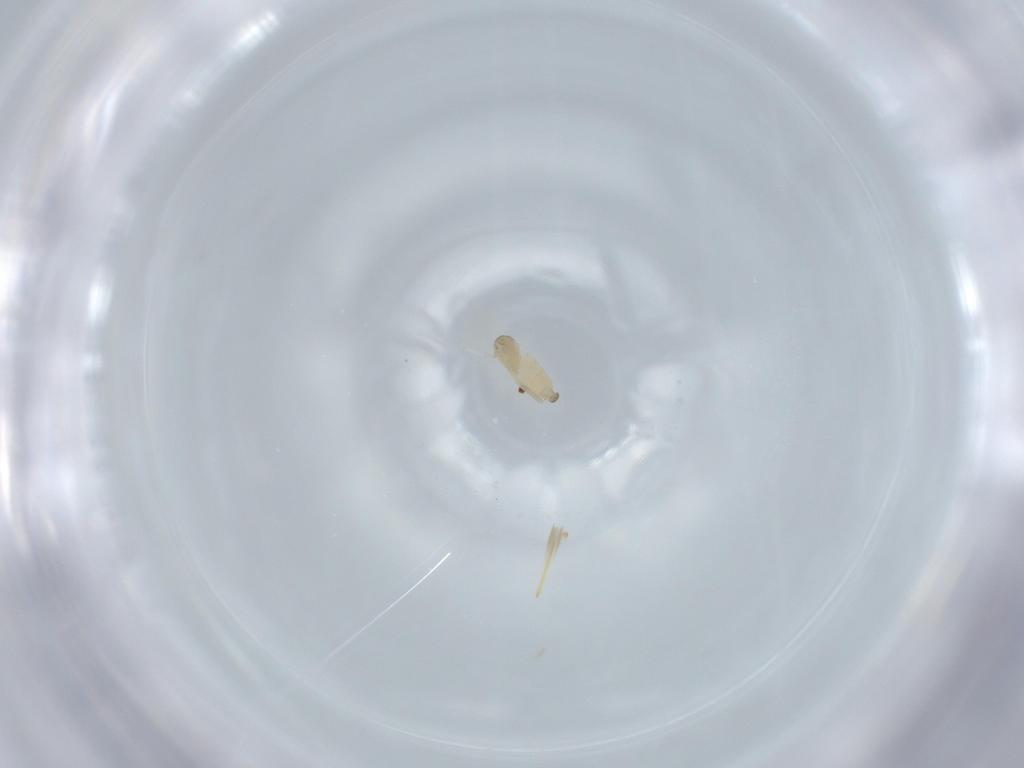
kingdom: Animalia
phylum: Arthropoda
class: Insecta
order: Diptera
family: Cecidomyiidae
